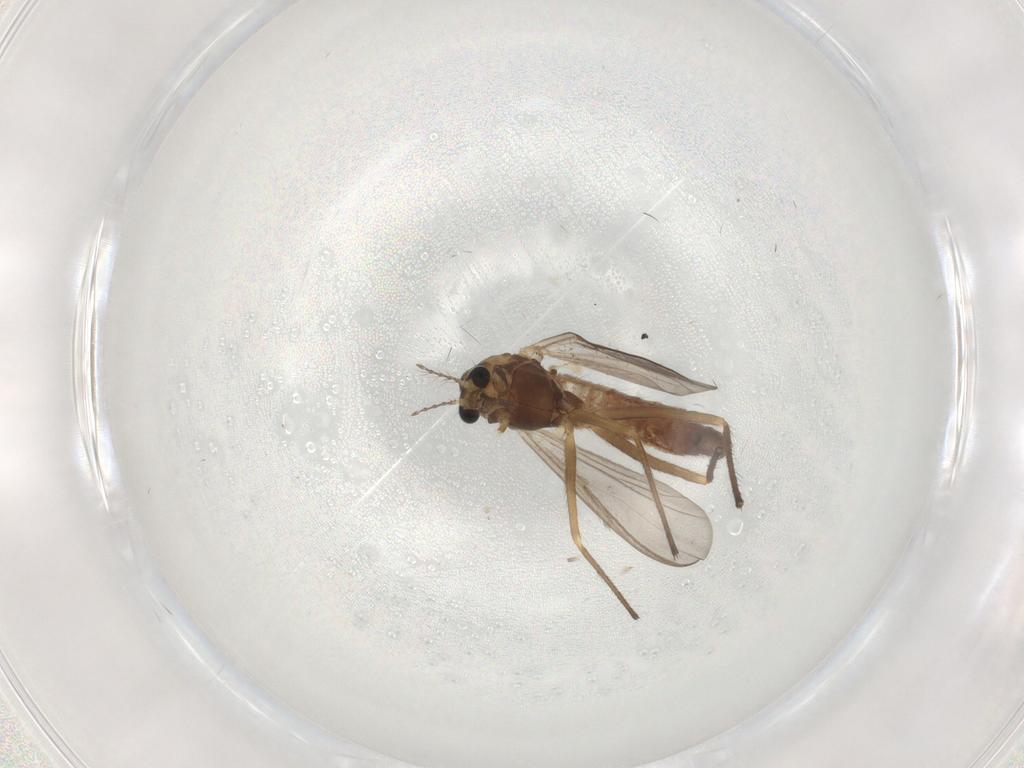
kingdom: Animalia
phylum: Arthropoda
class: Insecta
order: Diptera
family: Chironomidae
